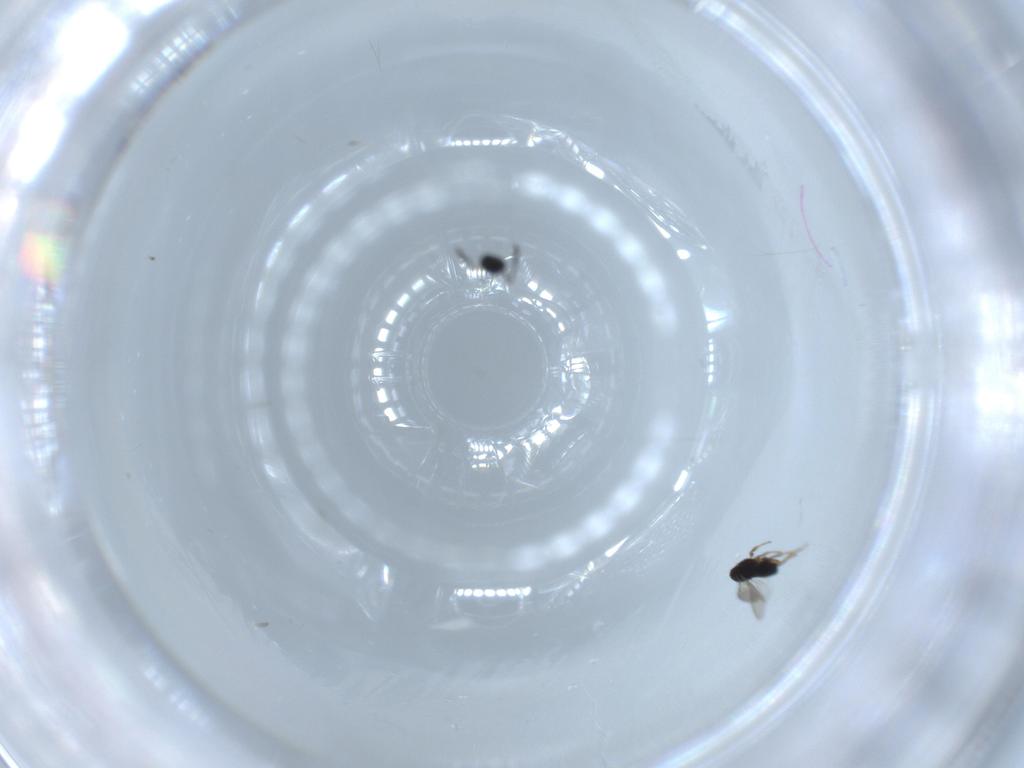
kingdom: Animalia
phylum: Arthropoda
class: Insecta
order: Hymenoptera
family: Scelionidae
